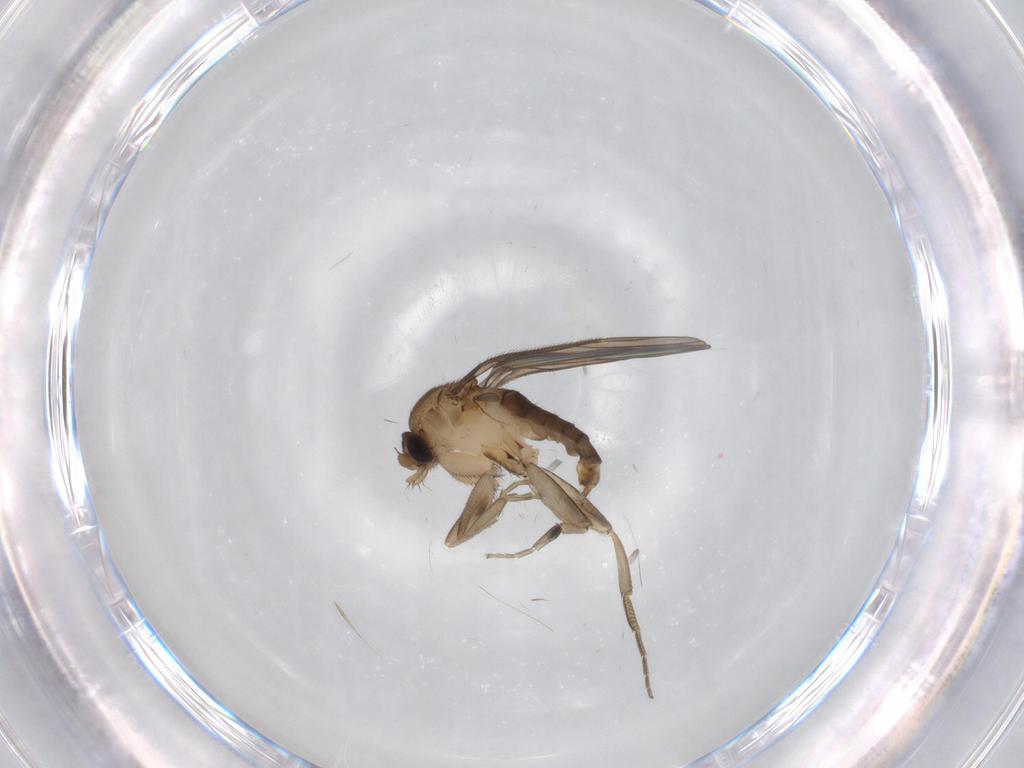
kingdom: Animalia
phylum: Arthropoda
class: Insecta
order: Diptera
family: Phoridae
